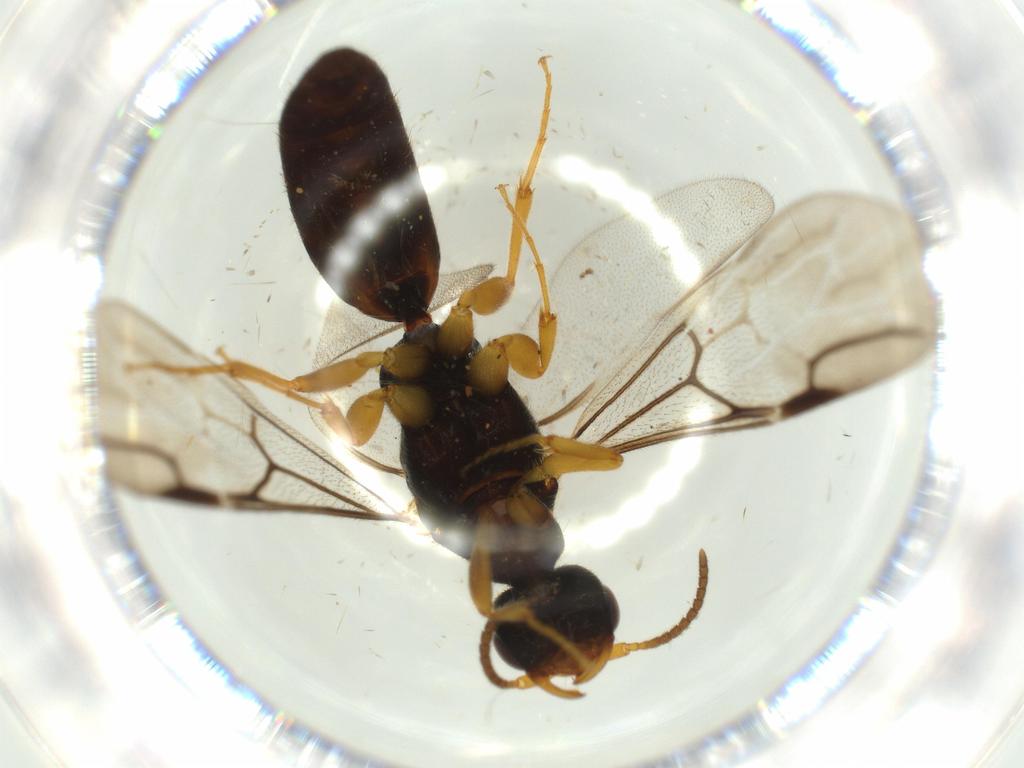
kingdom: Animalia
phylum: Arthropoda
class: Insecta
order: Hymenoptera
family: Bethylidae
